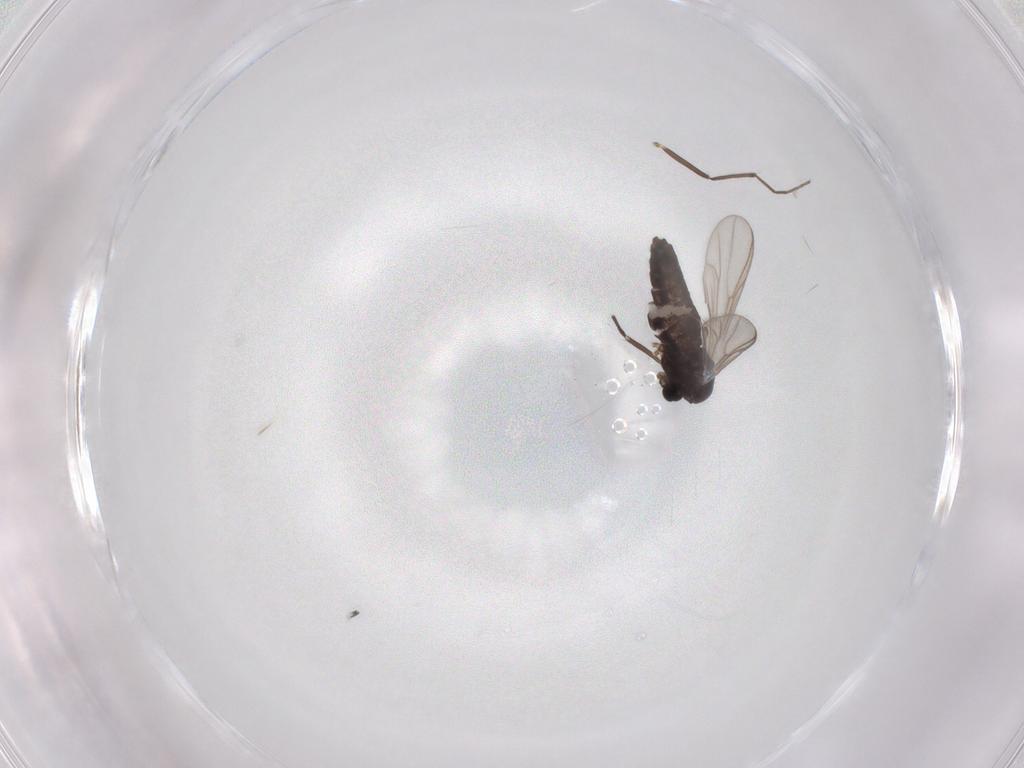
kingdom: Animalia
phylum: Arthropoda
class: Insecta
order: Diptera
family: Chironomidae
